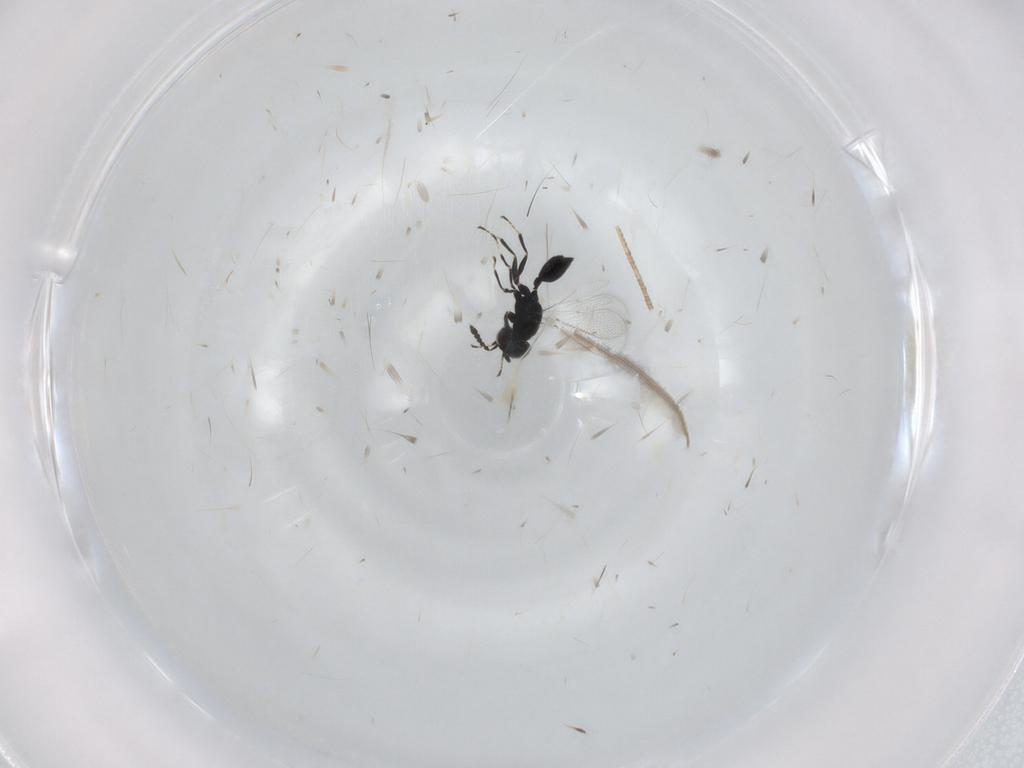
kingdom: Animalia
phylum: Arthropoda
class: Insecta
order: Hymenoptera
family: Eulophidae
